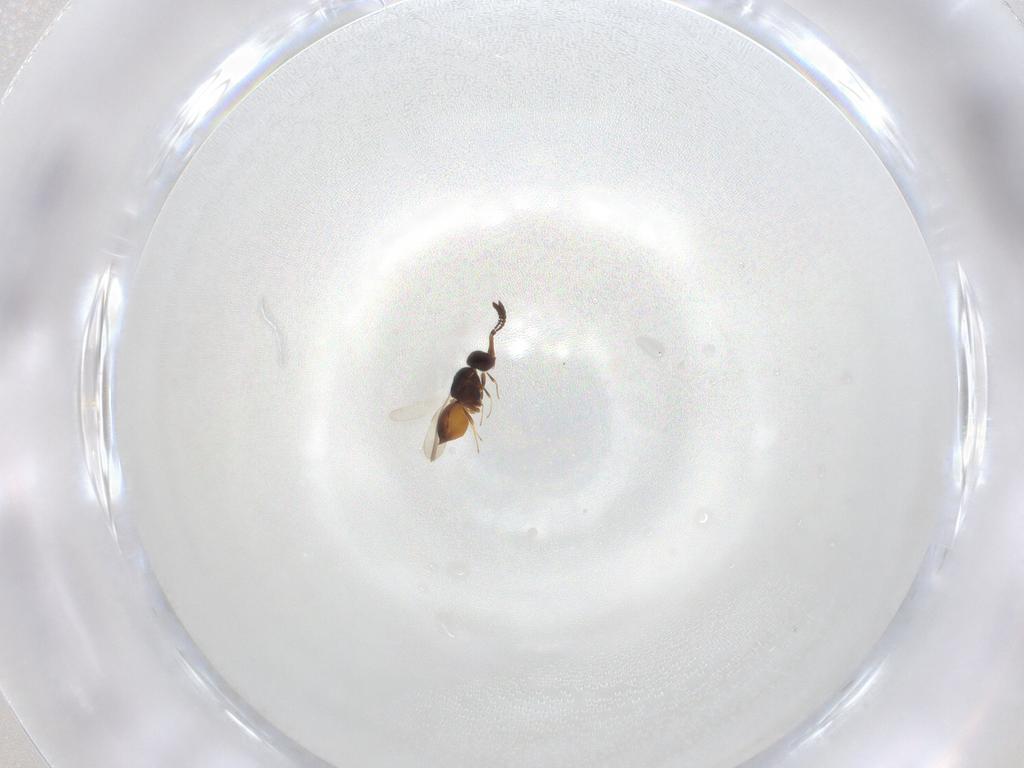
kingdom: Animalia
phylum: Arthropoda
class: Insecta
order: Hymenoptera
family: Ceraphronidae
